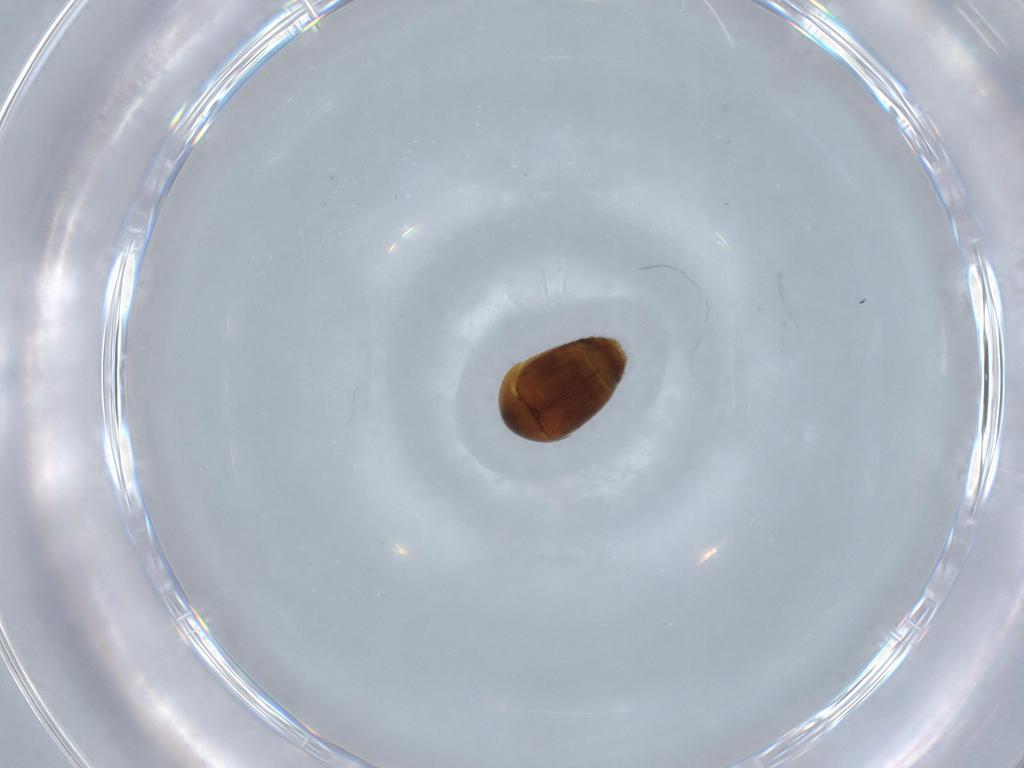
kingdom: Animalia
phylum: Arthropoda
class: Insecta
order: Coleoptera
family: Corylophidae
